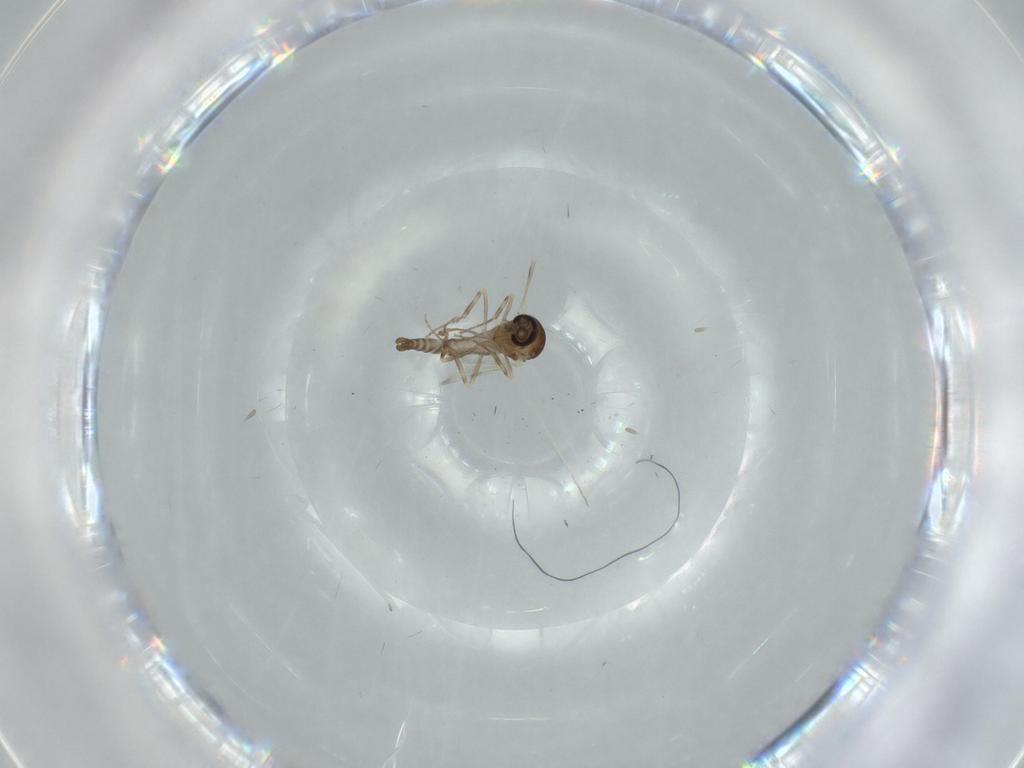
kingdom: Animalia
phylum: Arthropoda
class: Insecta
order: Diptera
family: Ceratopogonidae
